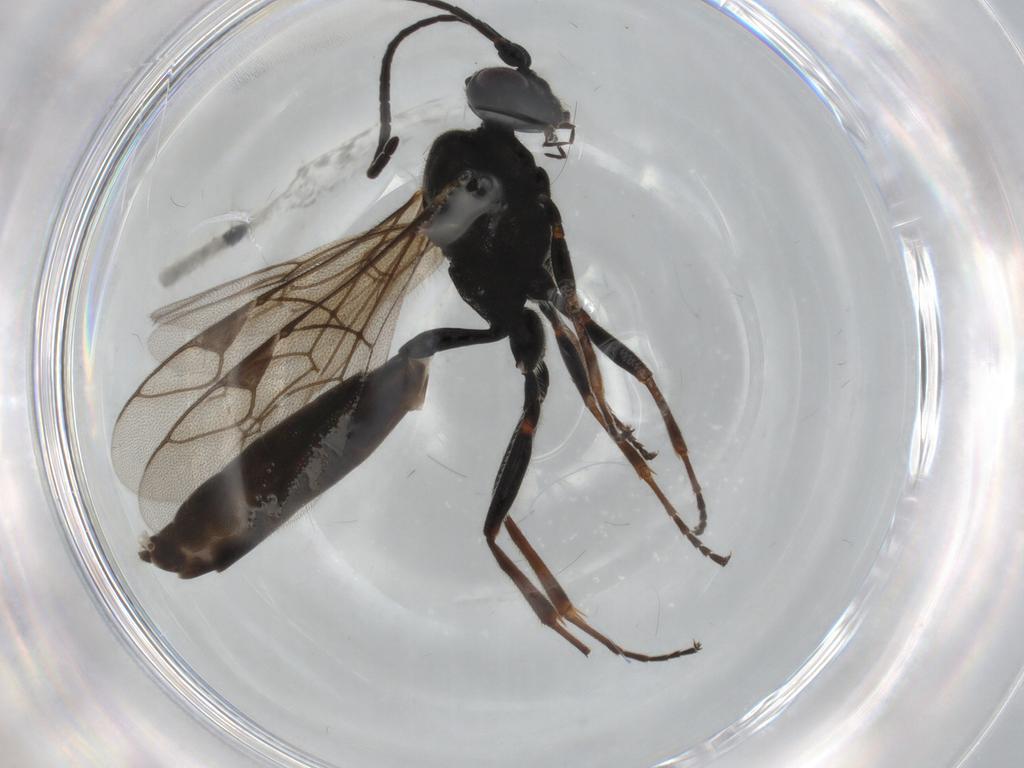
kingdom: Animalia
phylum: Arthropoda
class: Insecta
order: Hymenoptera
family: Ichneumonidae
